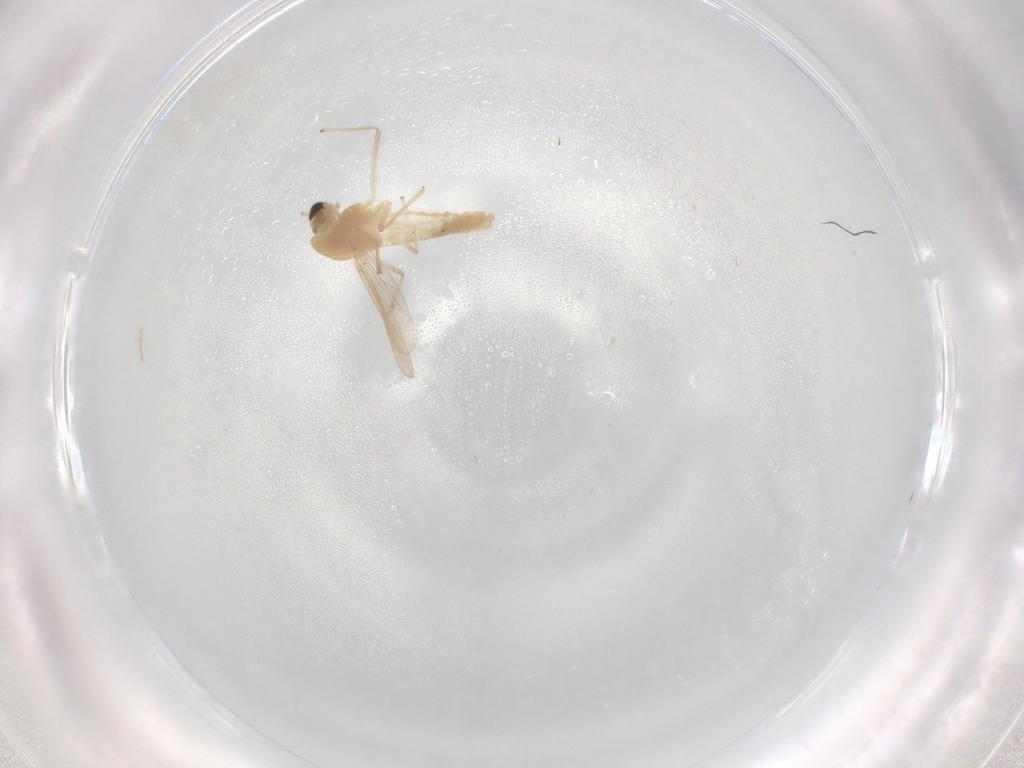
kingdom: Animalia
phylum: Arthropoda
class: Insecta
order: Diptera
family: Chironomidae
